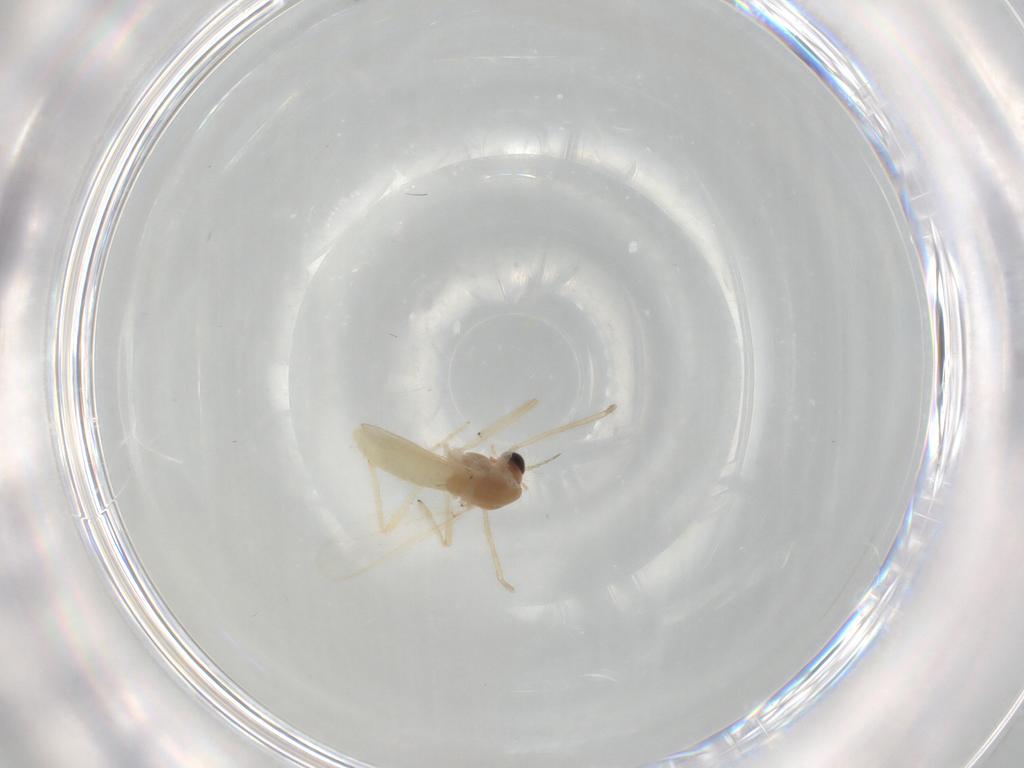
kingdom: Animalia
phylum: Arthropoda
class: Insecta
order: Diptera
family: Chironomidae
